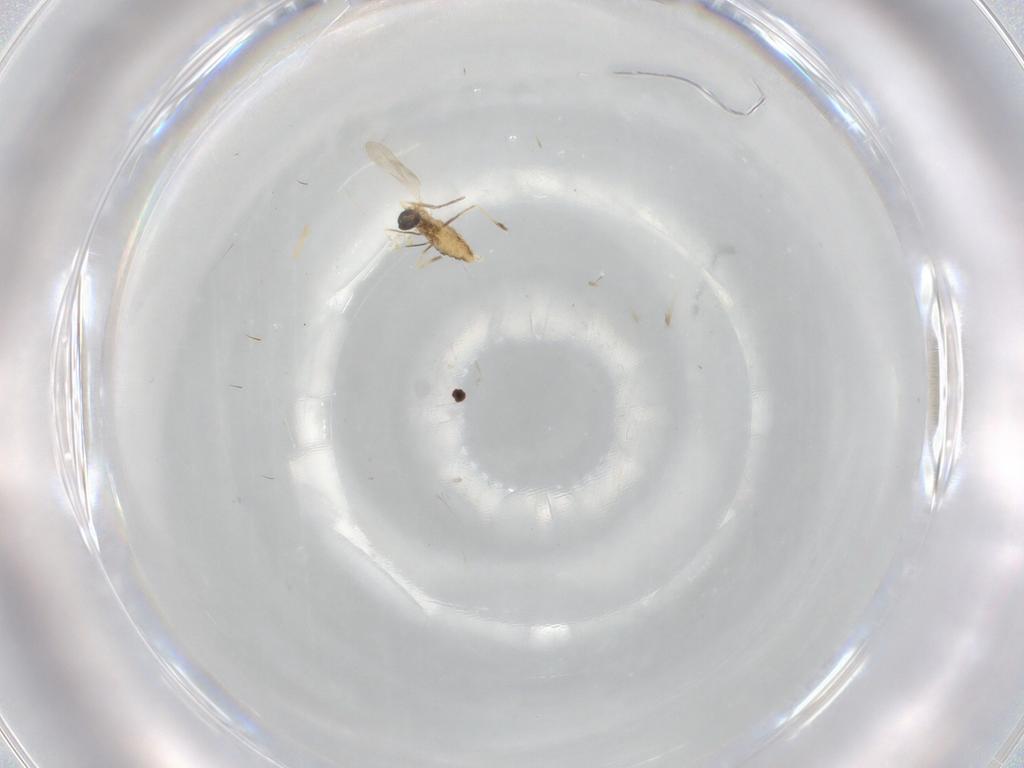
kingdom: Animalia
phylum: Arthropoda
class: Insecta
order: Diptera
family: Cecidomyiidae
